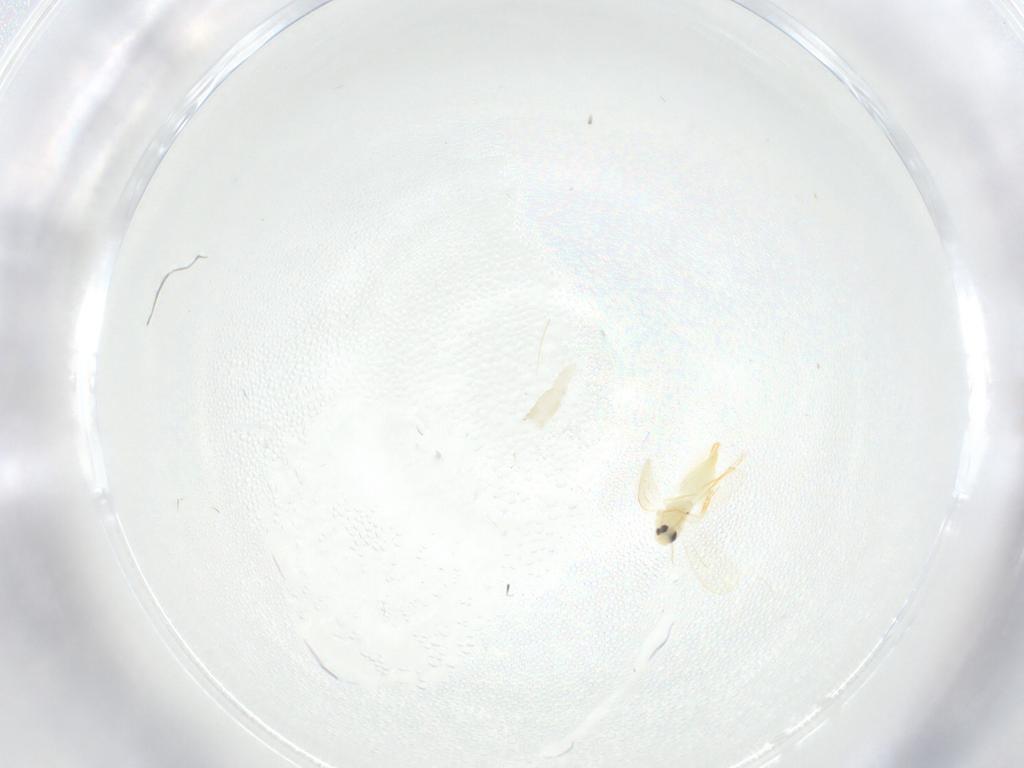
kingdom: Animalia
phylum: Arthropoda
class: Insecta
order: Hemiptera
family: Aleyrodidae
